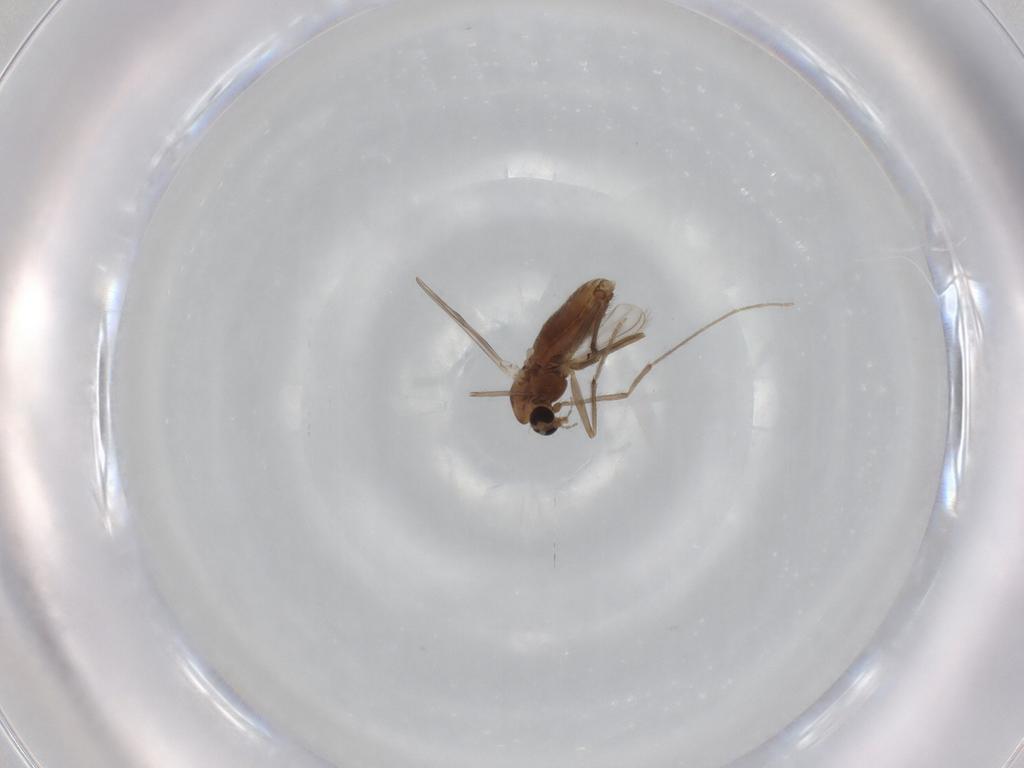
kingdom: Animalia
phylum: Arthropoda
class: Insecta
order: Diptera
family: Chironomidae
